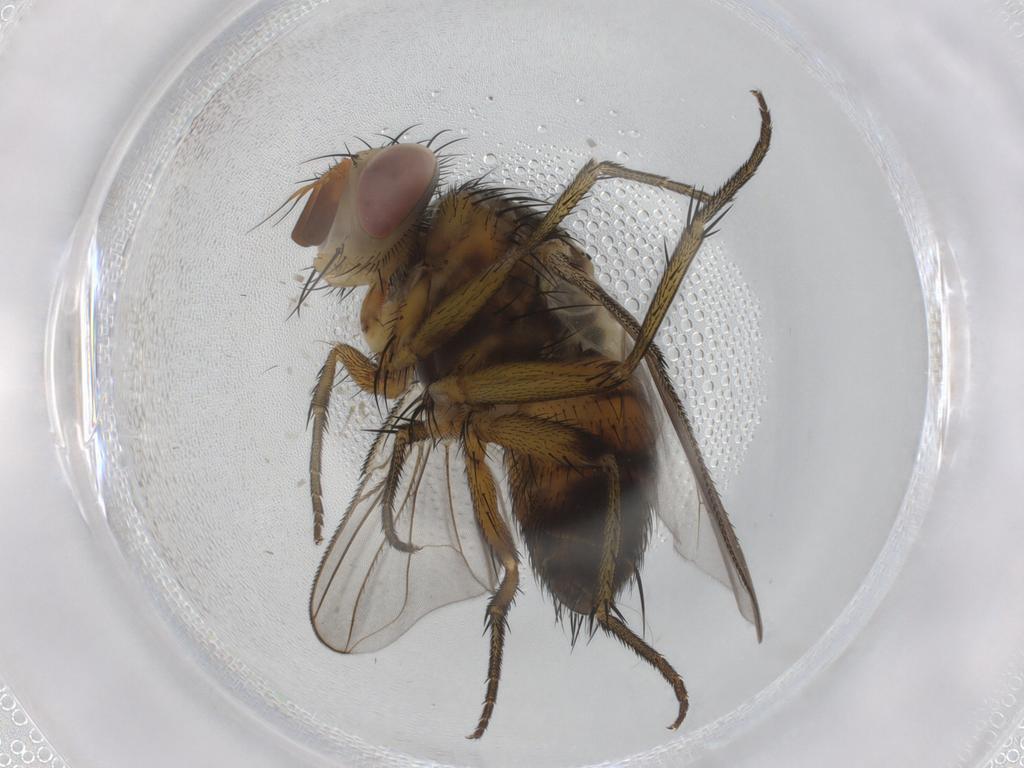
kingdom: Animalia
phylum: Arthropoda
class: Insecta
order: Diptera
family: Tachinidae
